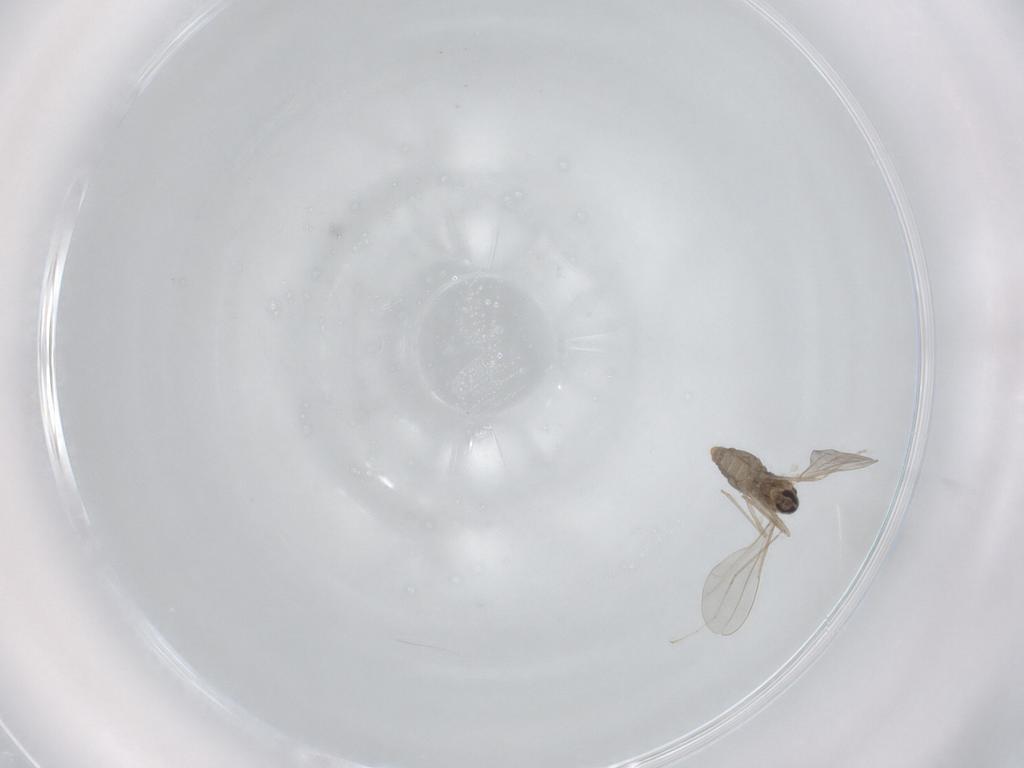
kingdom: Animalia
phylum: Arthropoda
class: Insecta
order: Diptera
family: Cecidomyiidae
